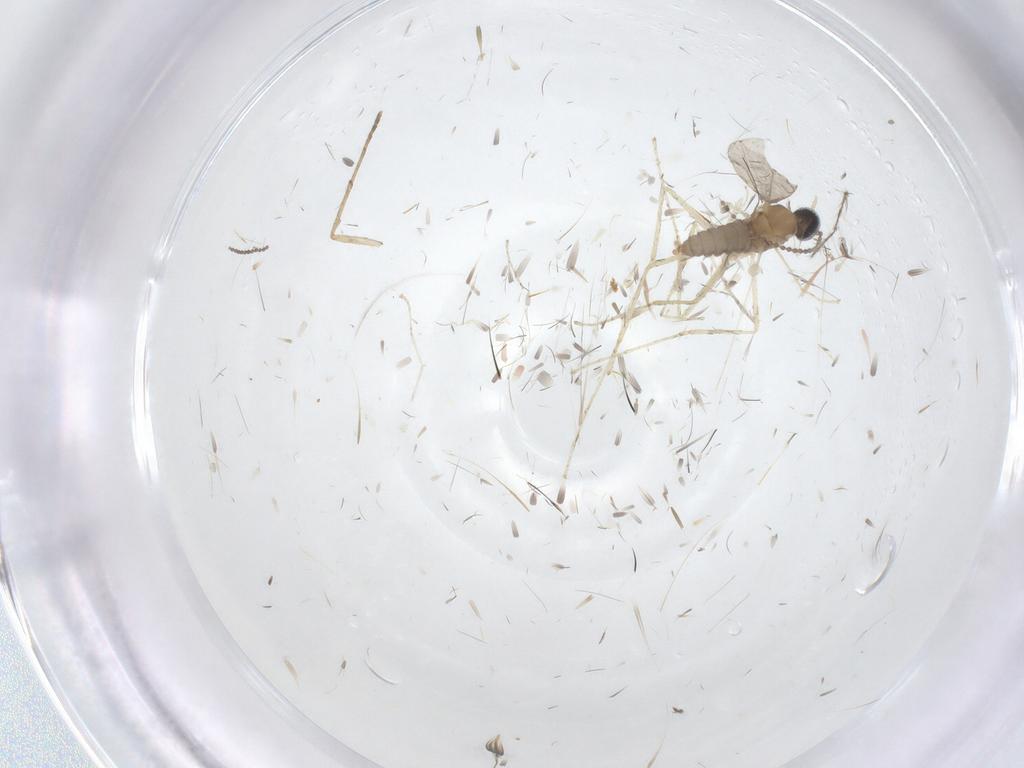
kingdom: Animalia
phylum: Arthropoda
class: Insecta
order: Diptera
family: Cecidomyiidae
